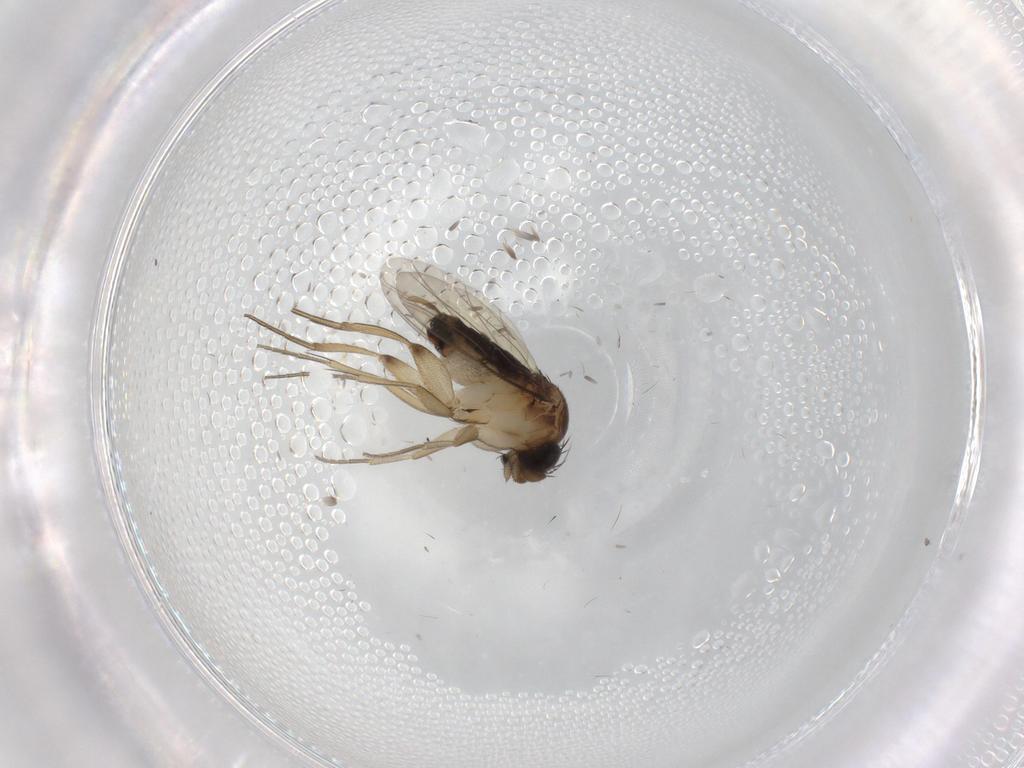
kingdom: Animalia
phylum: Arthropoda
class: Insecta
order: Diptera
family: Phoridae
